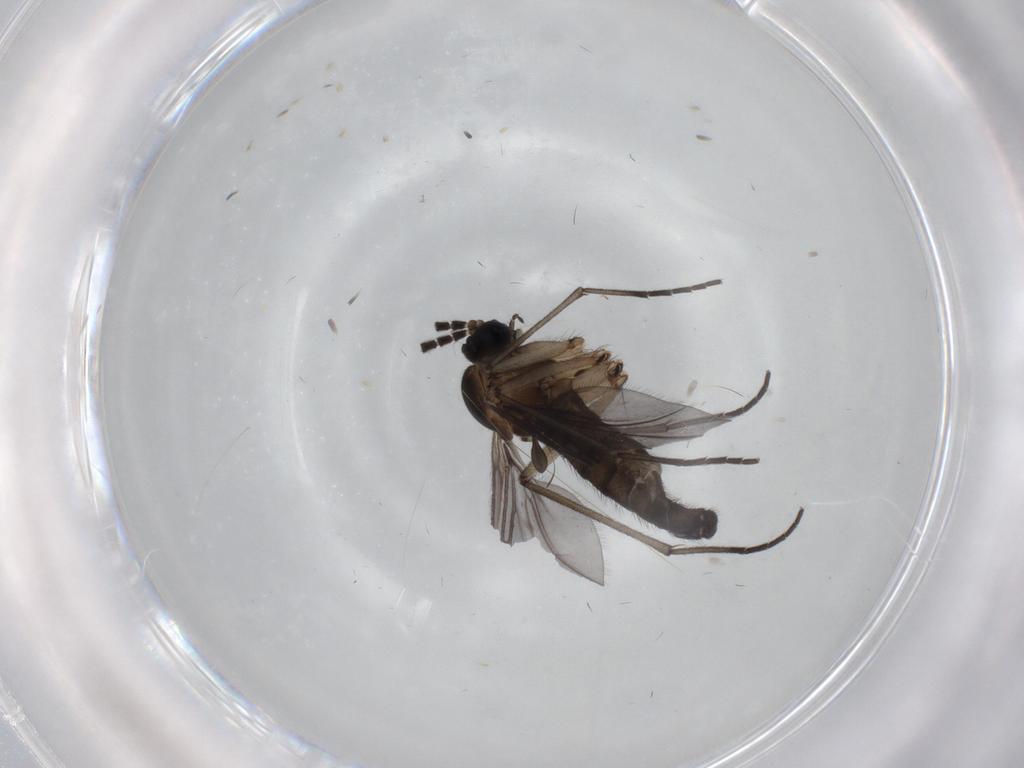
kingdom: Animalia
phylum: Arthropoda
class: Insecta
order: Diptera
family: Sciaridae
